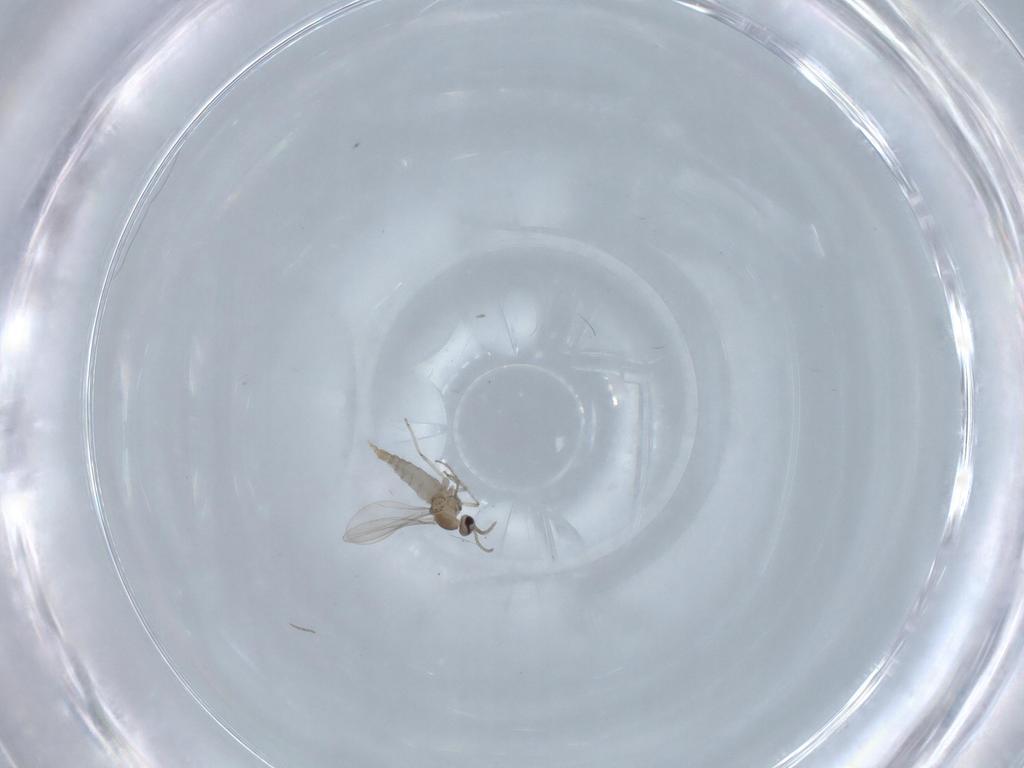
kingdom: Animalia
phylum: Arthropoda
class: Insecta
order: Diptera
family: Cecidomyiidae
